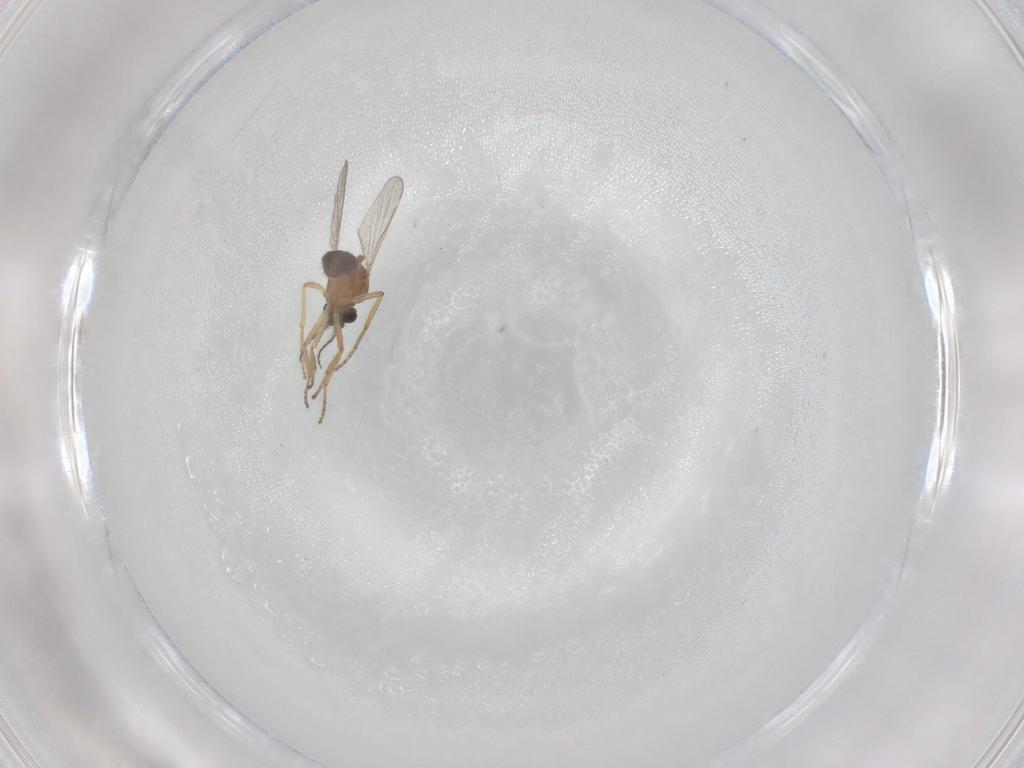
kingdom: Animalia
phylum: Arthropoda
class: Insecta
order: Diptera
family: Ceratopogonidae
